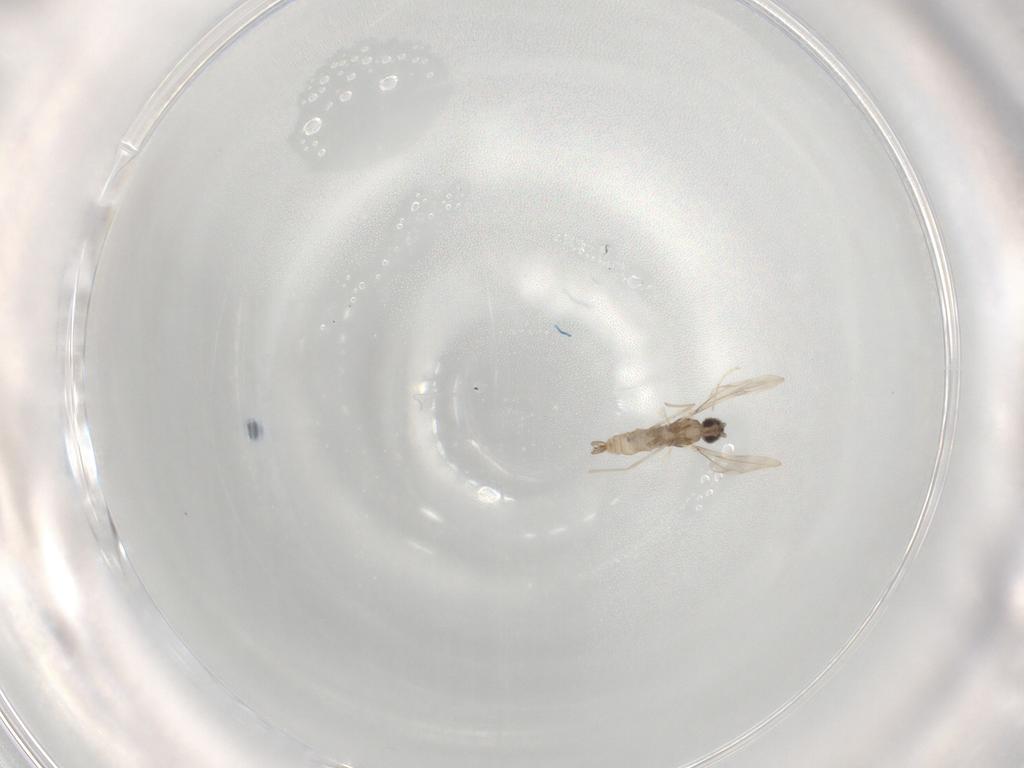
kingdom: Animalia
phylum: Arthropoda
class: Insecta
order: Diptera
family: Cecidomyiidae
